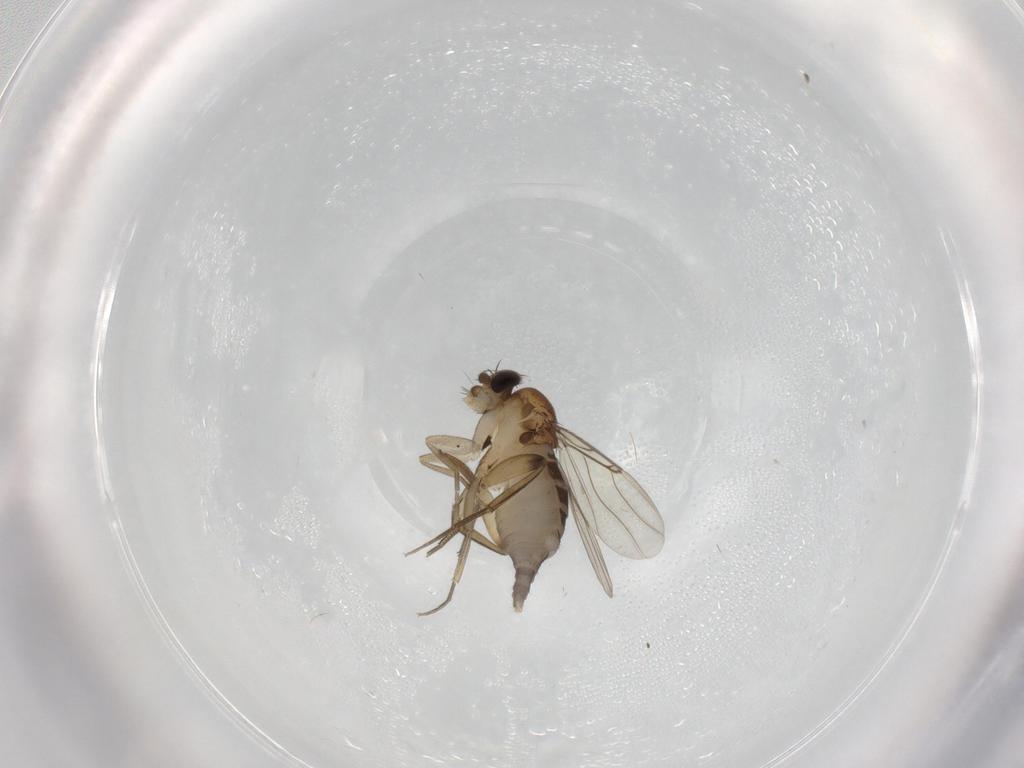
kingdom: Animalia
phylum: Arthropoda
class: Insecta
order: Diptera
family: Phoridae
